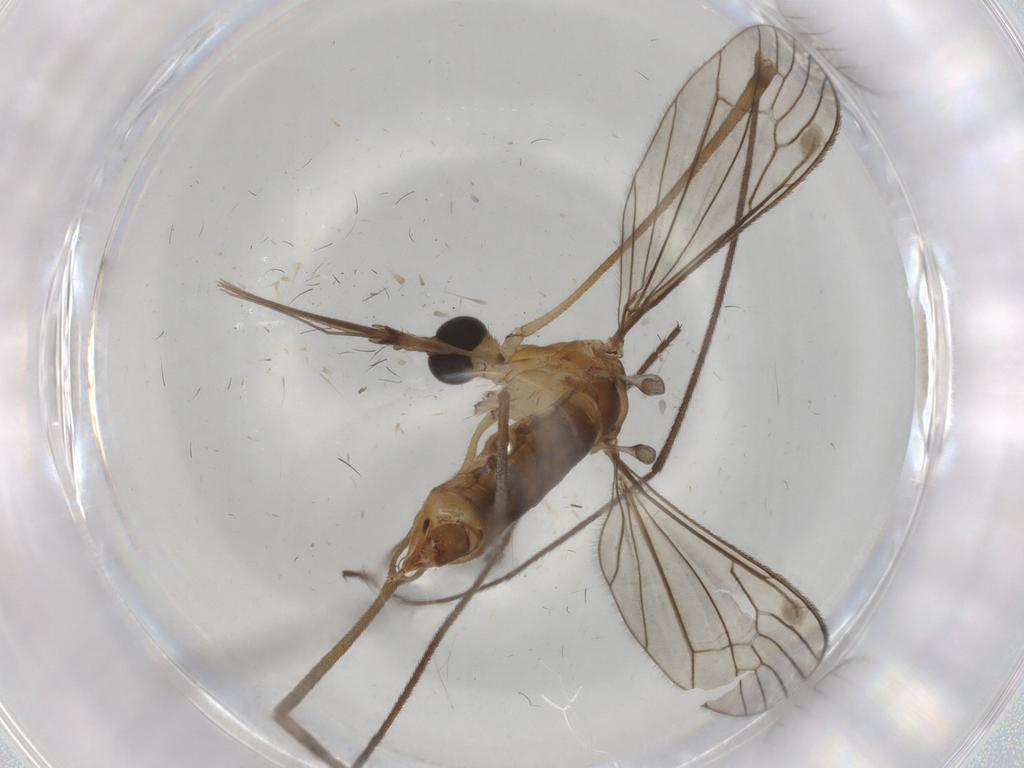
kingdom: Animalia
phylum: Arthropoda
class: Insecta
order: Diptera
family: Limoniidae
